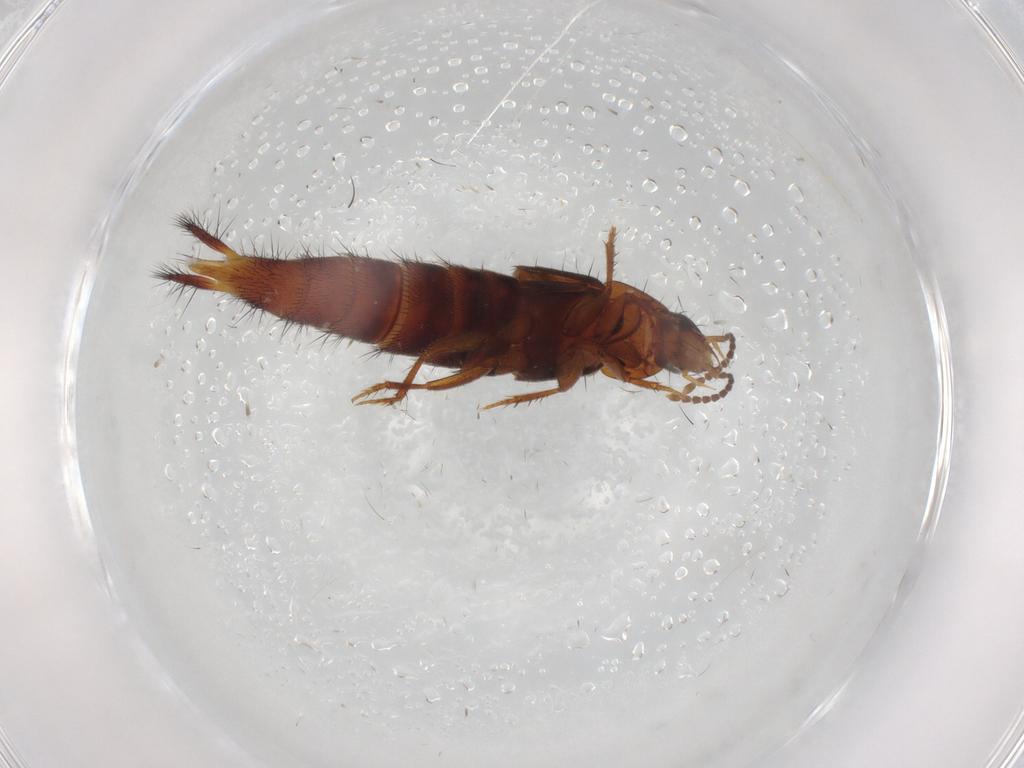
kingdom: Animalia
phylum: Arthropoda
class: Insecta
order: Coleoptera
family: Staphylinidae
